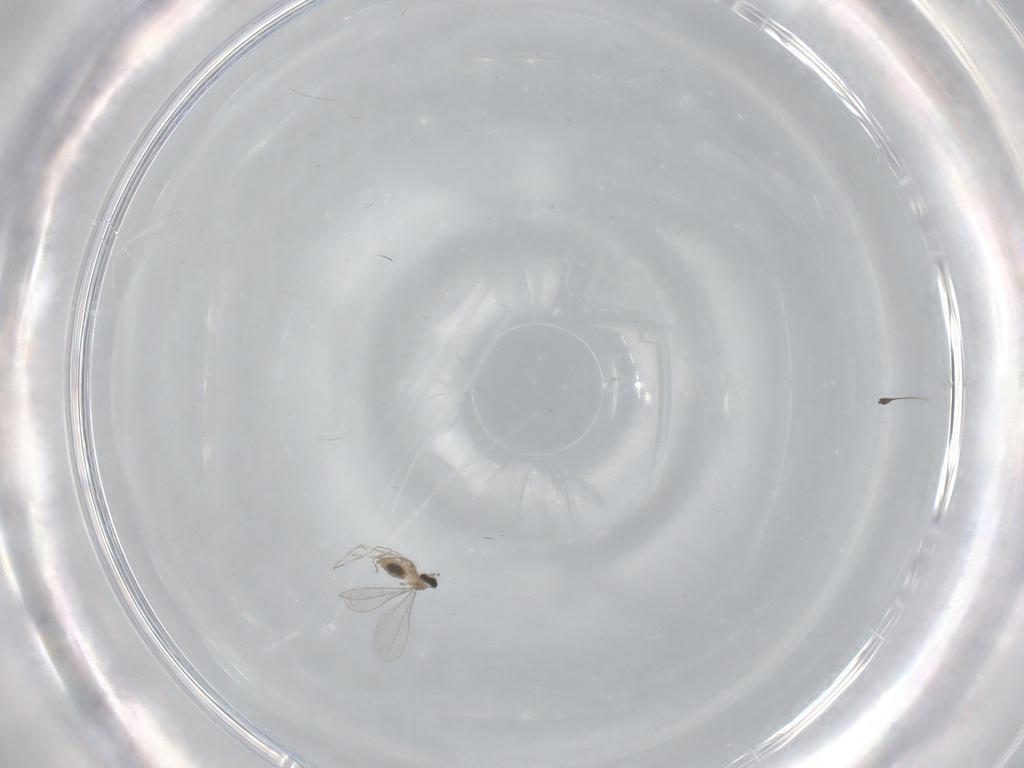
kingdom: Animalia
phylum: Arthropoda
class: Insecta
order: Diptera
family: Cecidomyiidae
